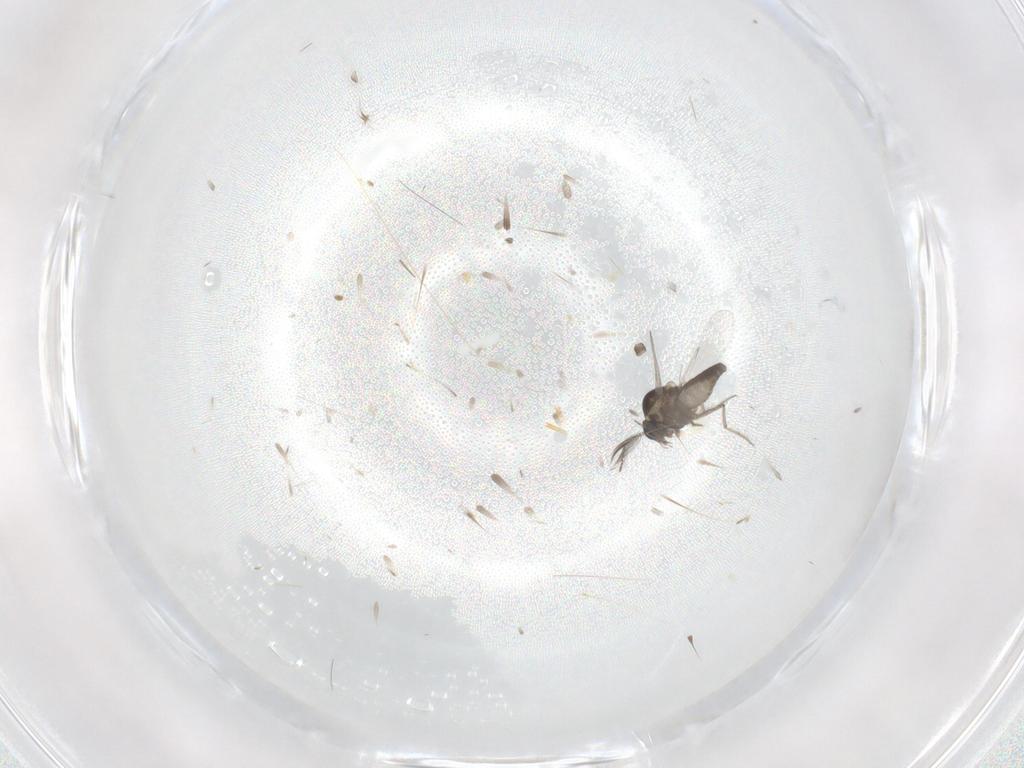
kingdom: Animalia
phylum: Arthropoda
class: Insecta
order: Diptera
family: Ceratopogonidae
